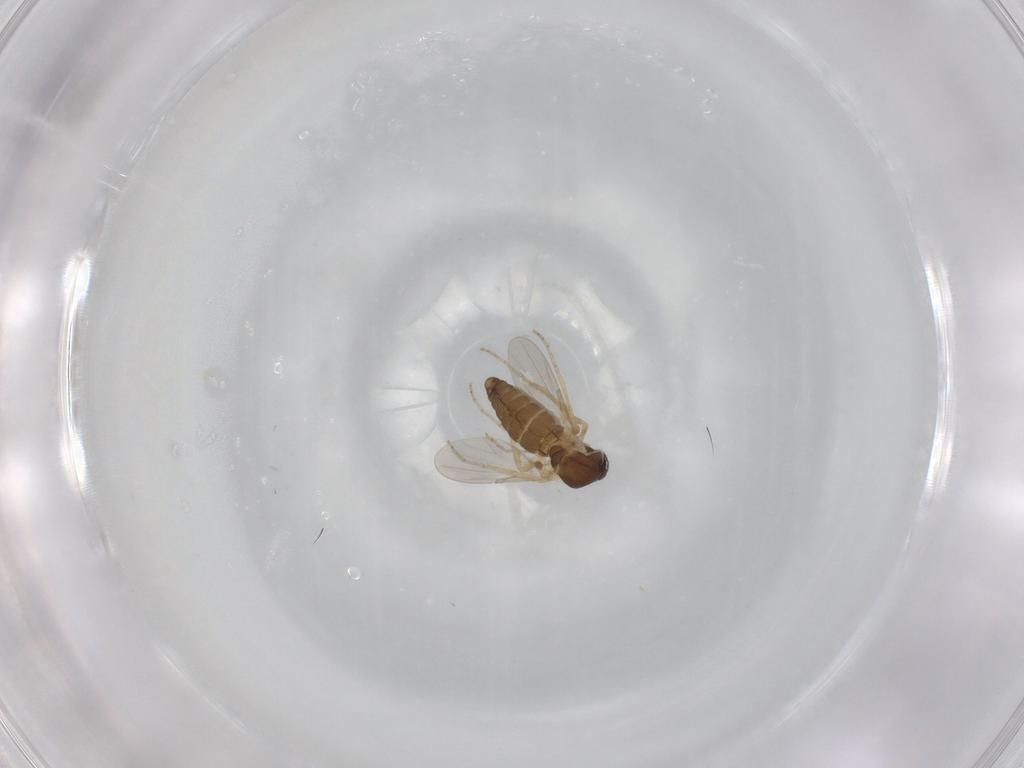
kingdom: Animalia
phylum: Arthropoda
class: Insecta
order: Diptera
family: Ceratopogonidae
